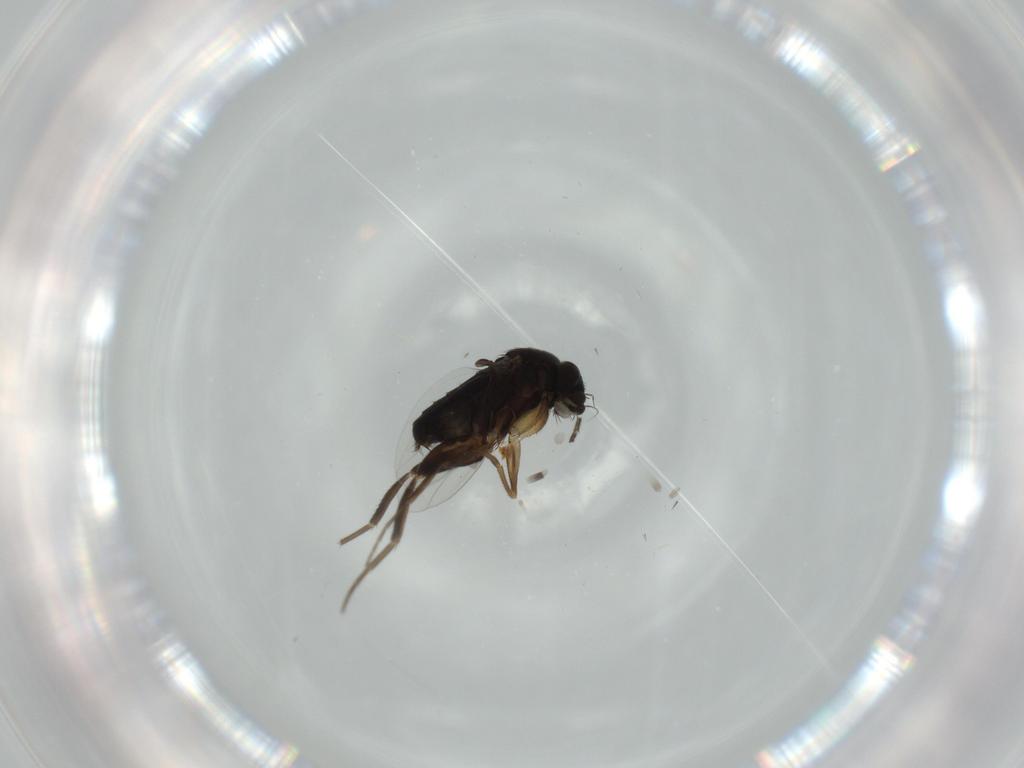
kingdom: Animalia
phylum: Arthropoda
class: Insecta
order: Diptera
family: Phoridae
